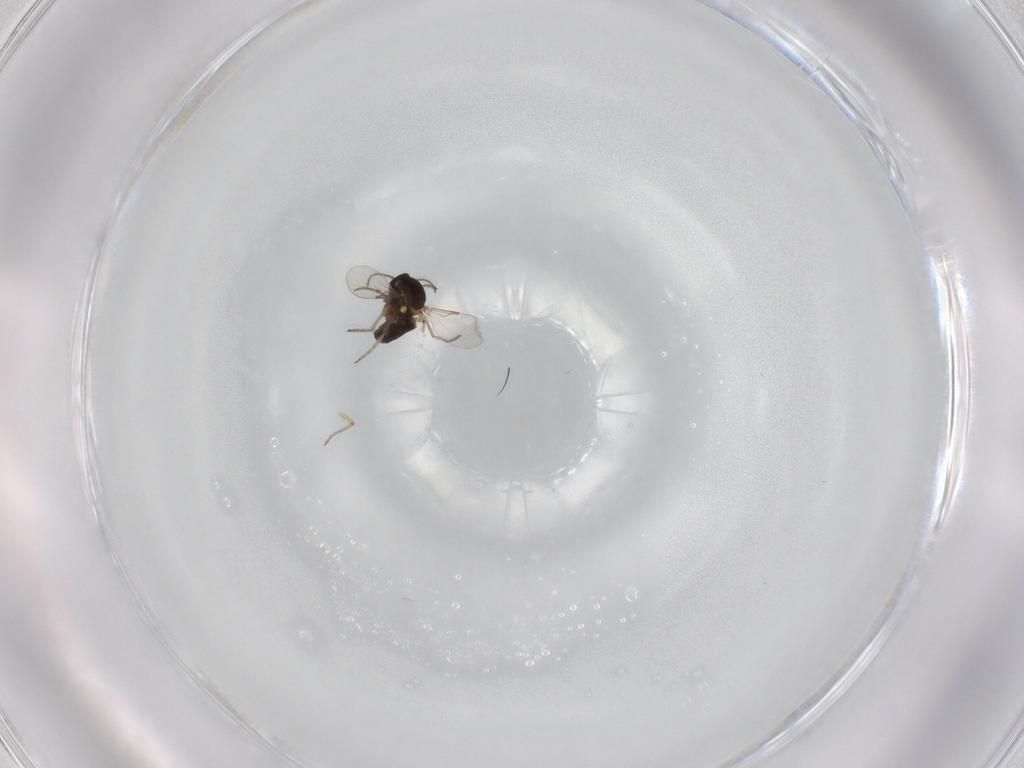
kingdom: Animalia
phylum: Arthropoda
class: Insecta
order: Diptera
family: Ceratopogonidae
